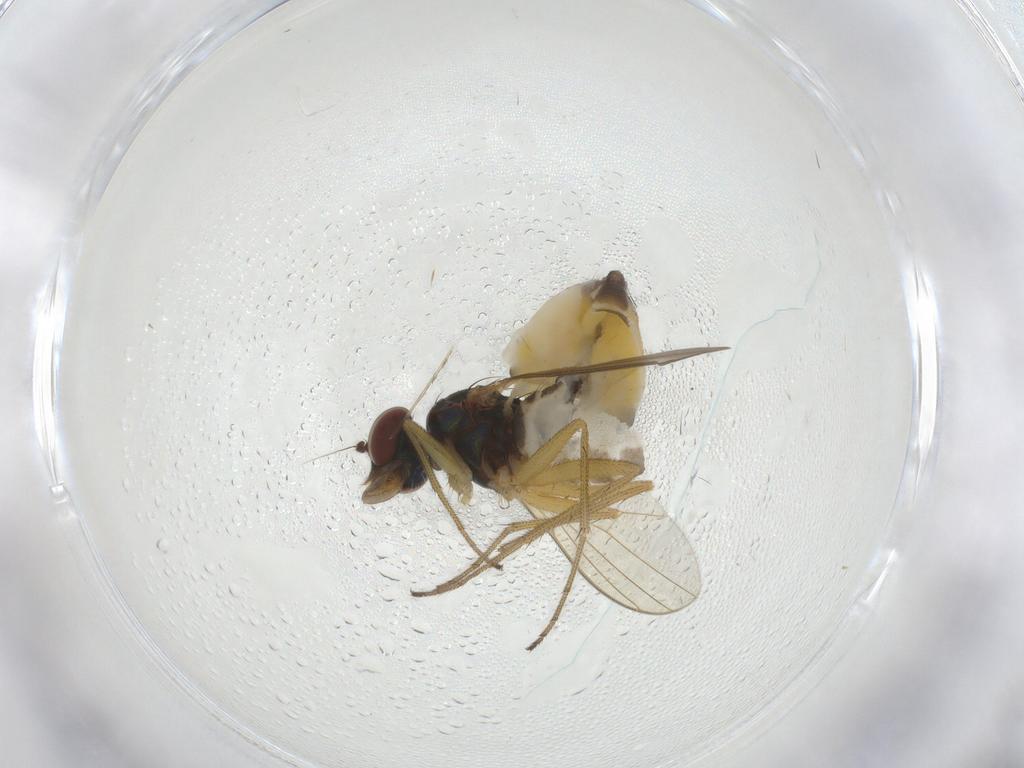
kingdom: Animalia
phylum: Arthropoda
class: Insecta
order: Diptera
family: Dolichopodidae
